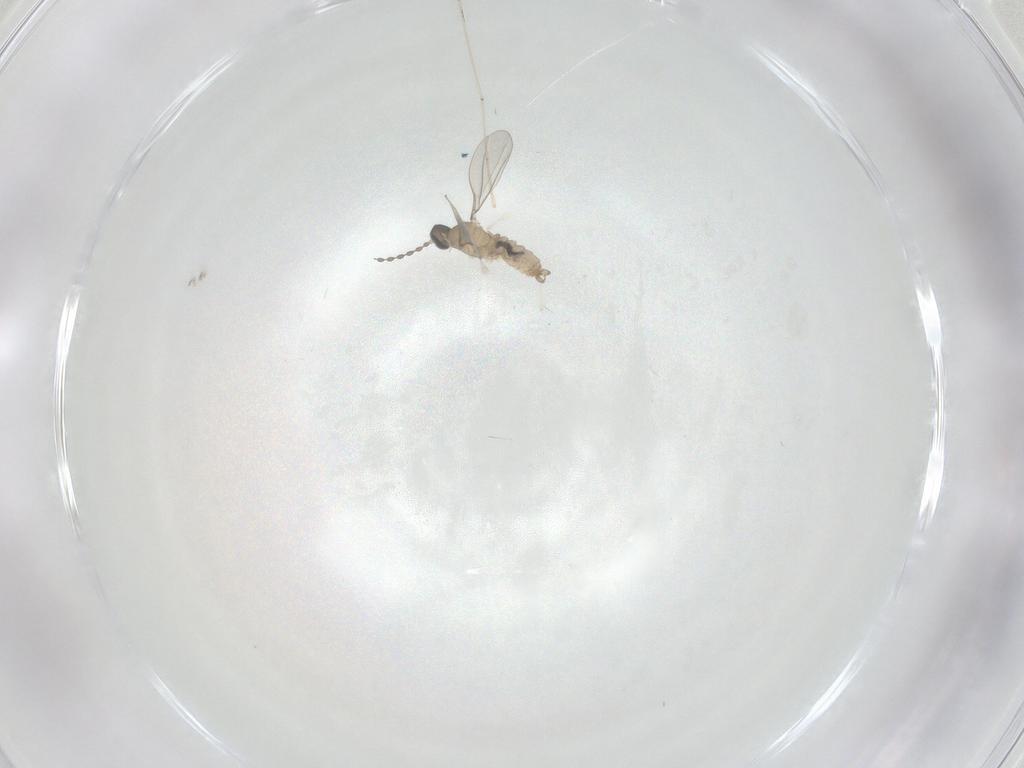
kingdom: Animalia
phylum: Arthropoda
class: Insecta
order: Diptera
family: Cecidomyiidae
